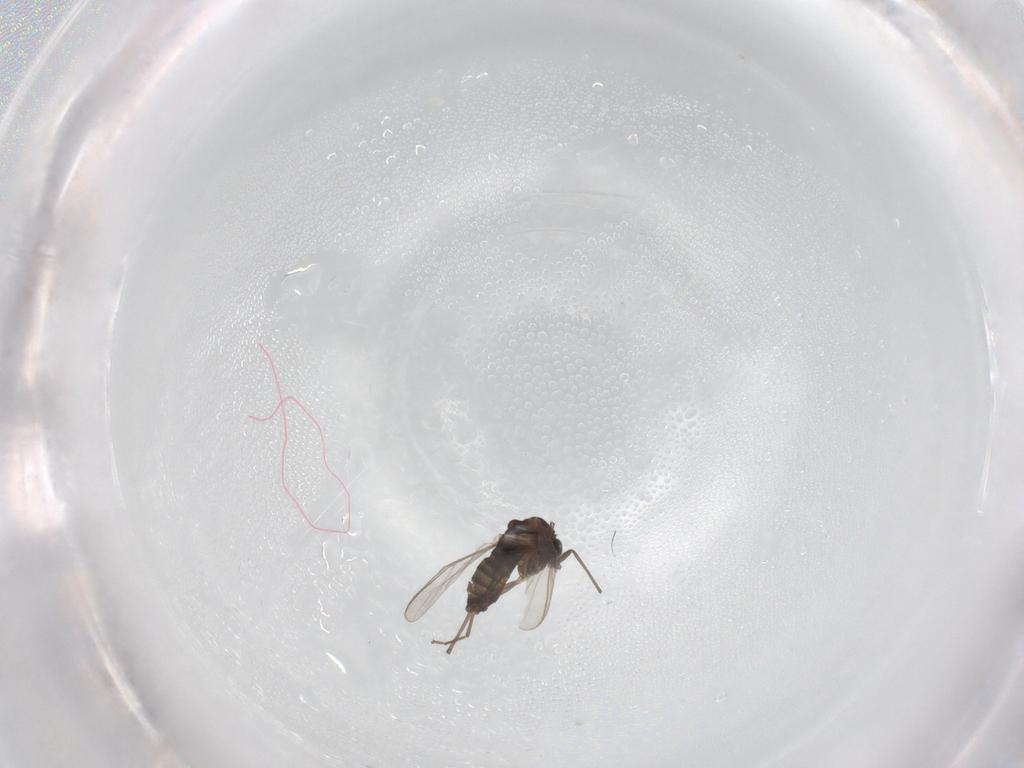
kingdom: Animalia
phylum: Arthropoda
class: Insecta
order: Diptera
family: Chironomidae
